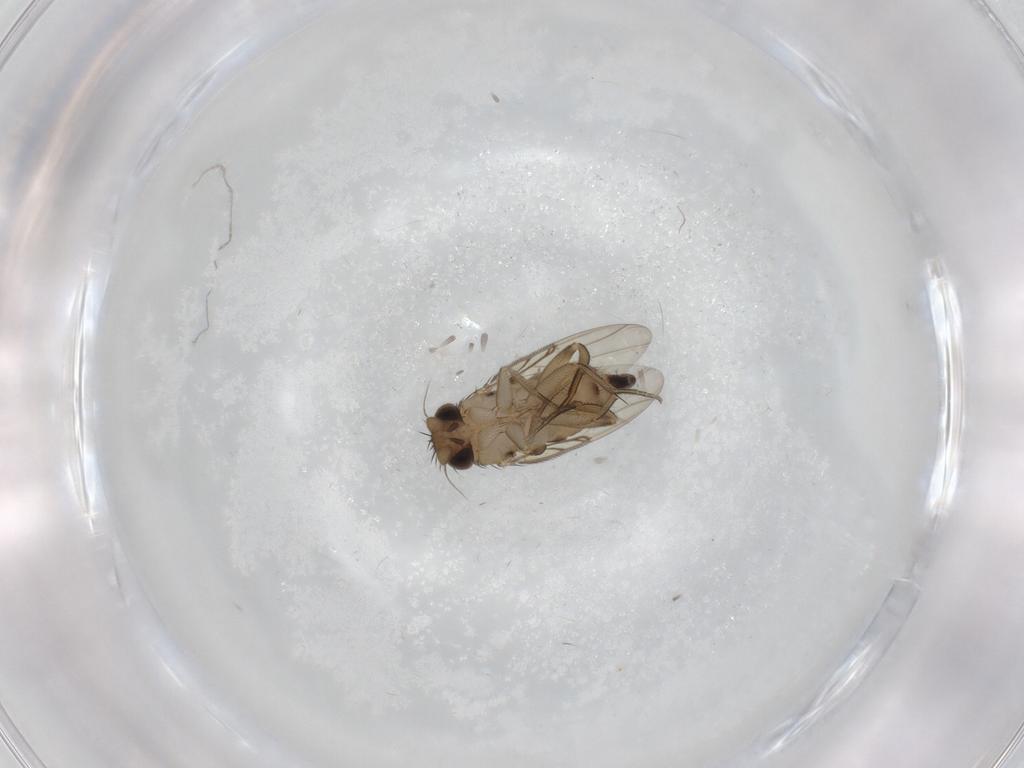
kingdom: Animalia
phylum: Arthropoda
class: Insecta
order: Diptera
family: Phoridae
